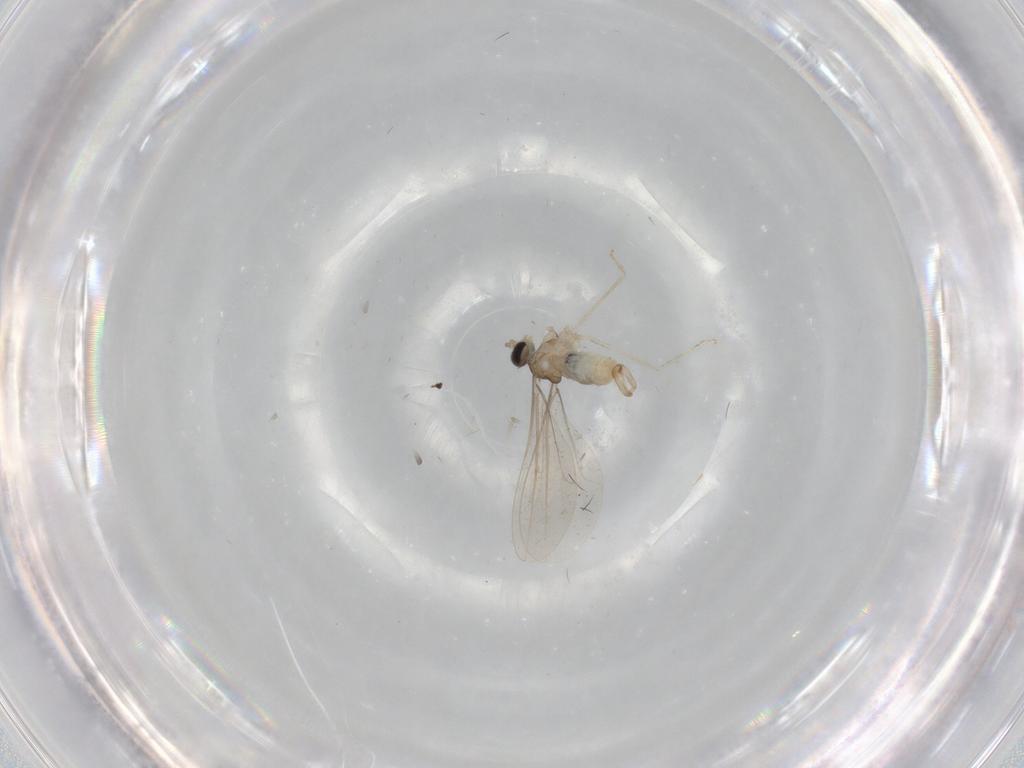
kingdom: Animalia
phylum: Arthropoda
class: Insecta
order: Diptera
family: Cecidomyiidae
